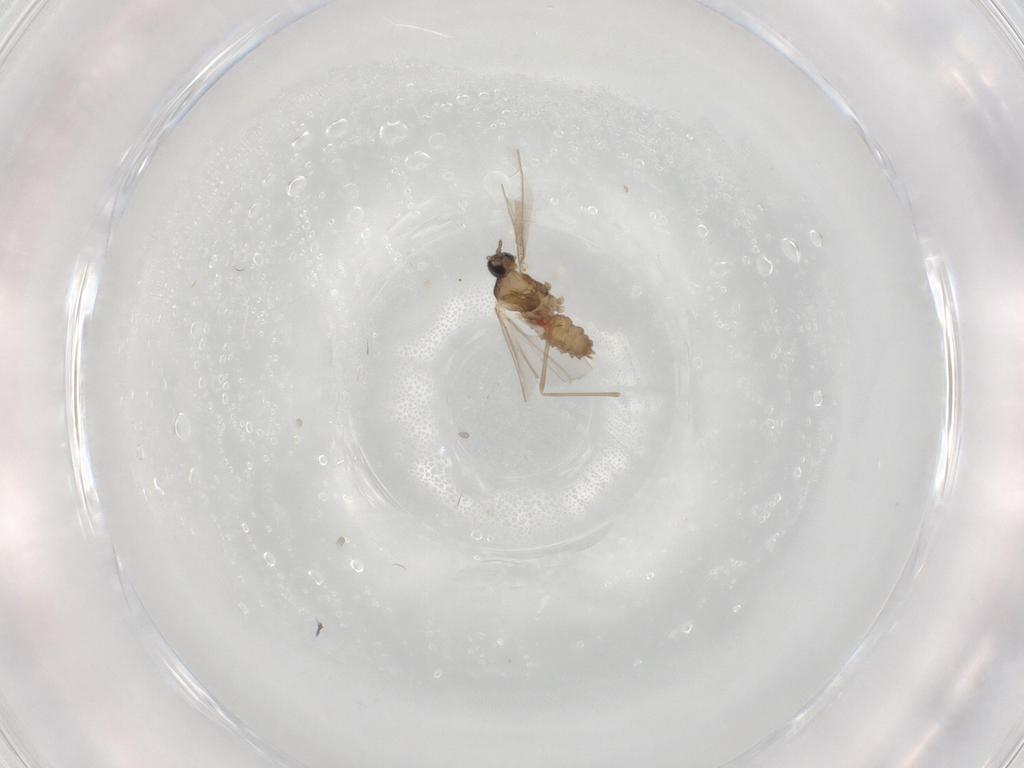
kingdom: Animalia
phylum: Arthropoda
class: Insecta
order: Diptera
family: Cecidomyiidae
